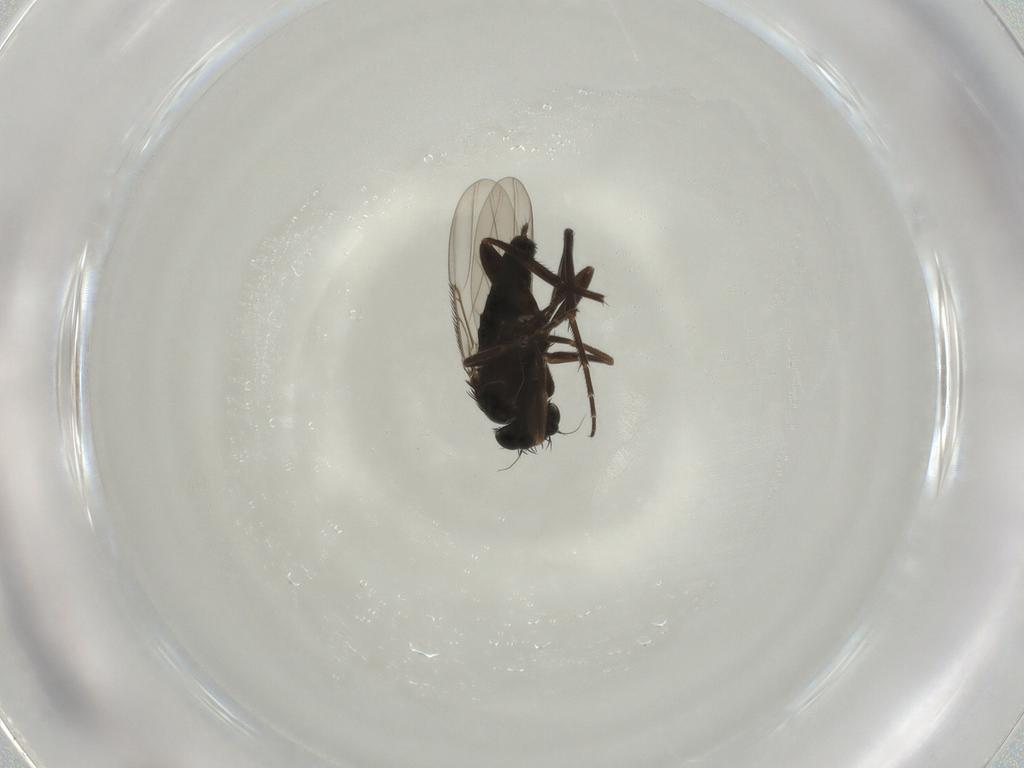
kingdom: Animalia
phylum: Arthropoda
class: Insecta
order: Diptera
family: Phoridae
